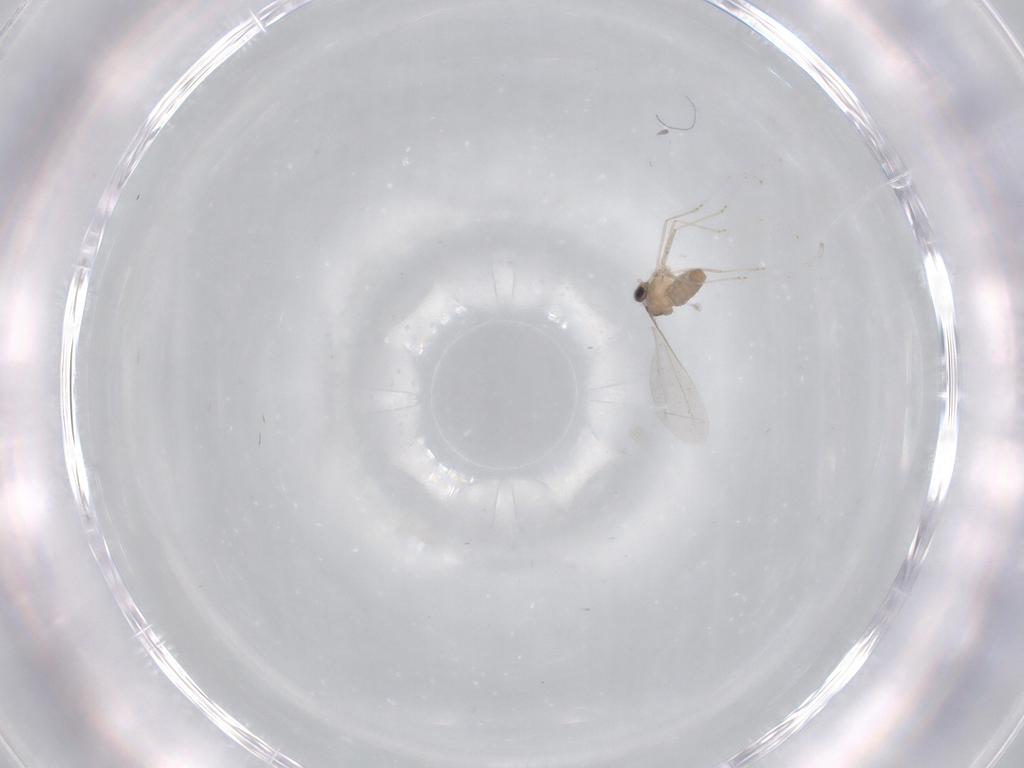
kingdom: Animalia
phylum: Arthropoda
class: Insecta
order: Diptera
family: Cecidomyiidae
